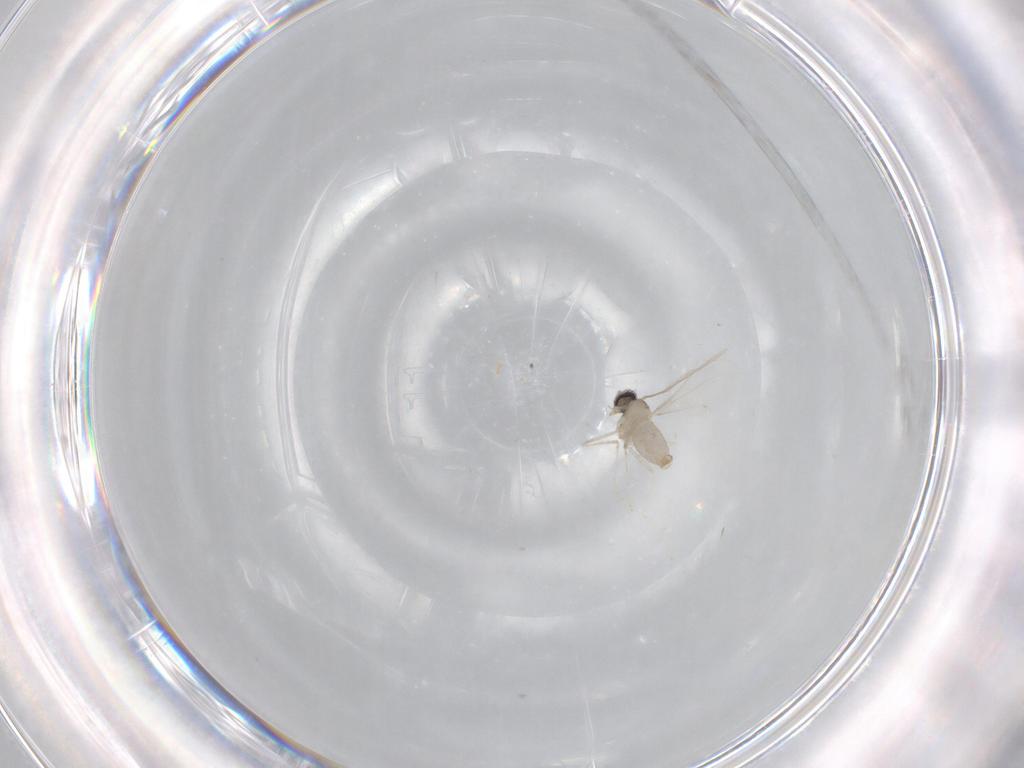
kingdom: Animalia
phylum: Arthropoda
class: Insecta
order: Diptera
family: Cecidomyiidae
